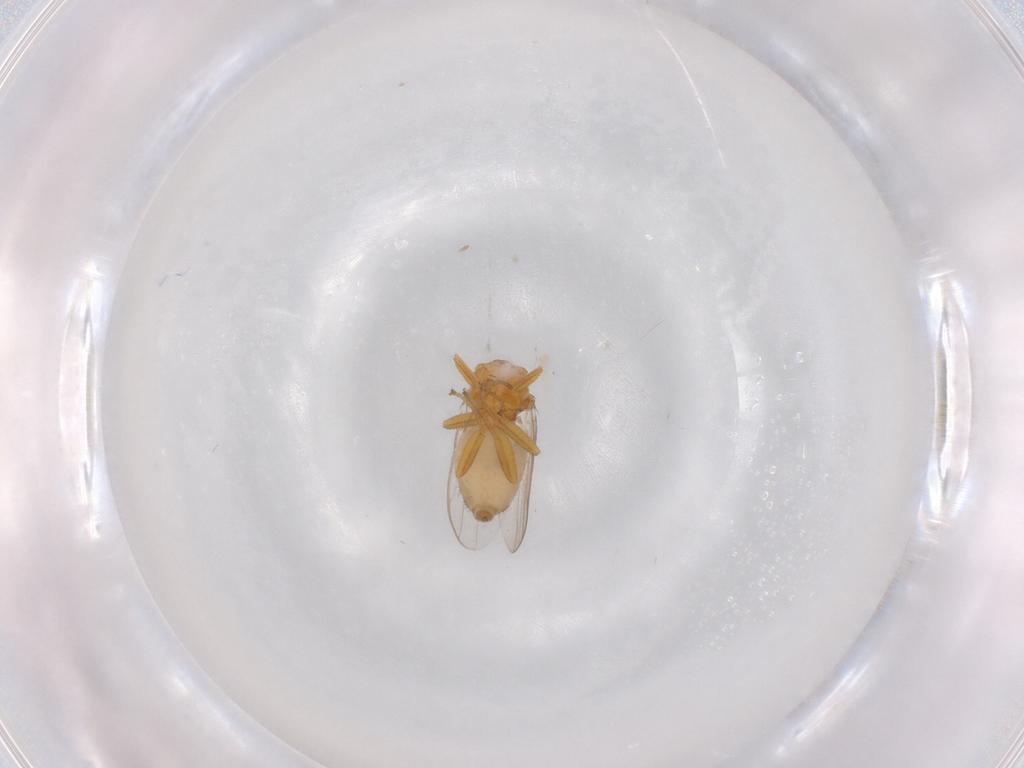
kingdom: Animalia
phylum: Arthropoda
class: Insecta
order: Diptera
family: Chloropidae
